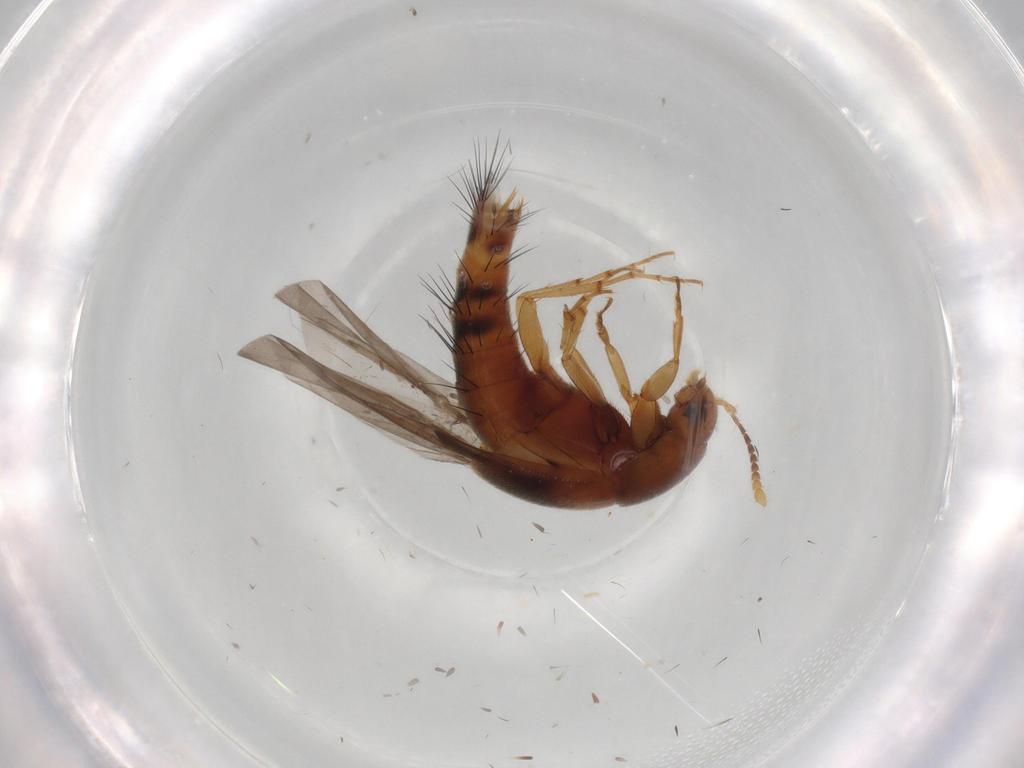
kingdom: Animalia
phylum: Arthropoda
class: Insecta
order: Coleoptera
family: Staphylinidae
